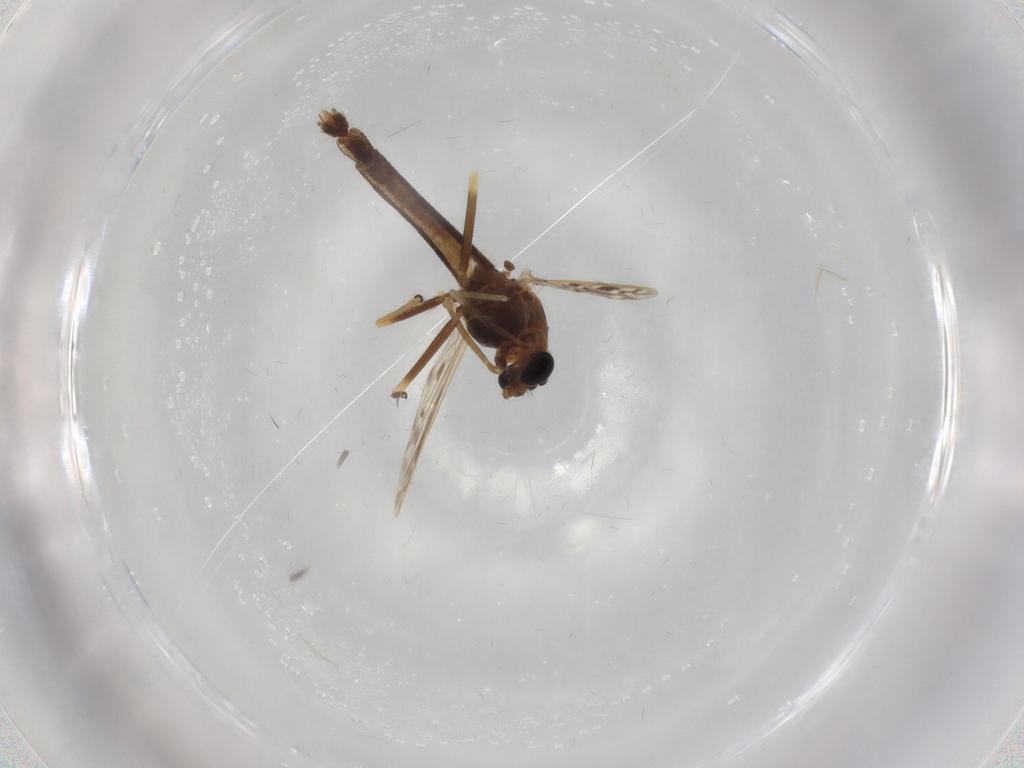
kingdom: Animalia
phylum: Arthropoda
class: Insecta
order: Diptera
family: Chironomidae
